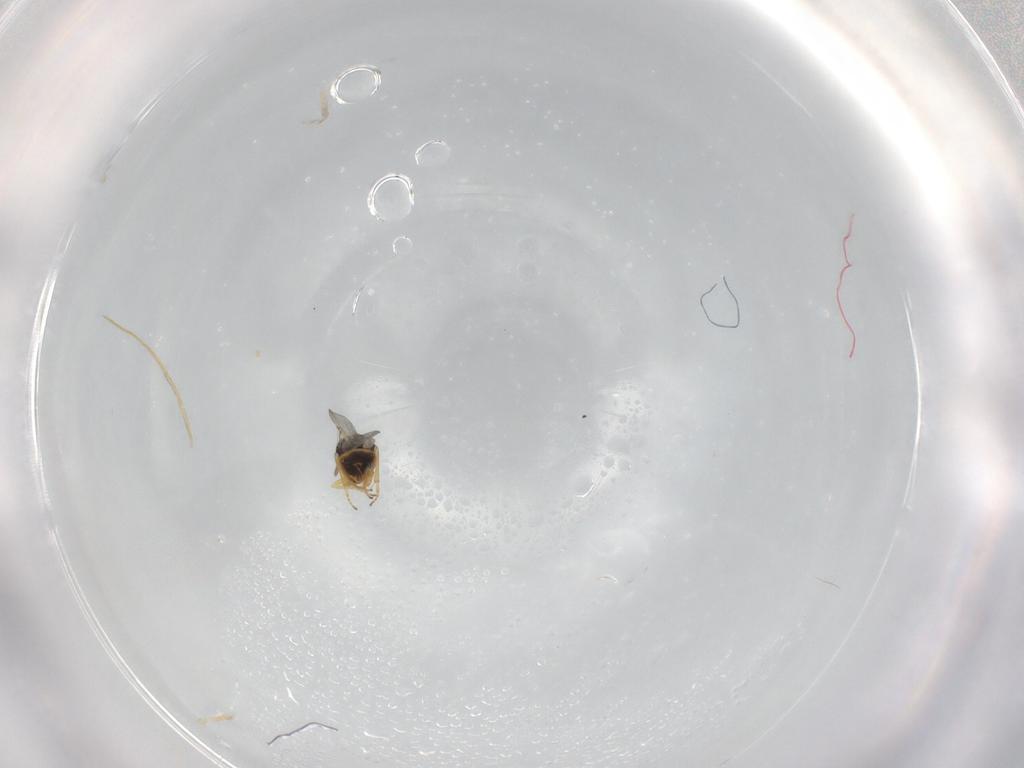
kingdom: Animalia
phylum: Arthropoda
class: Insecta
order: Hymenoptera
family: Encyrtidae
